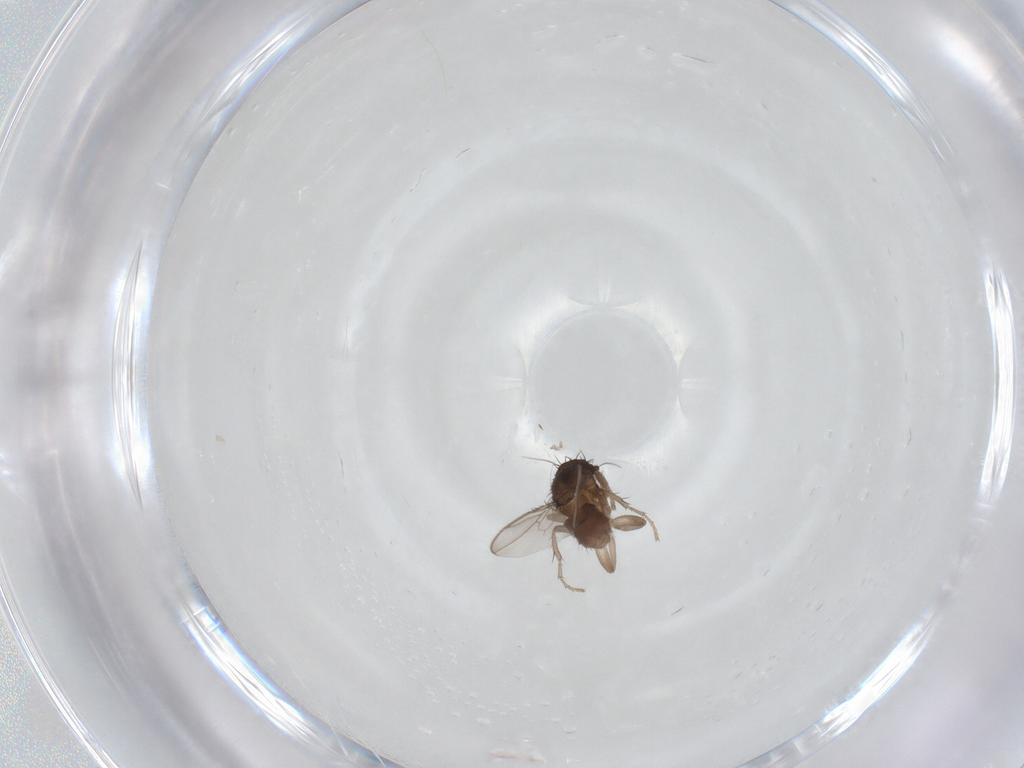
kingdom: Animalia
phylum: Arthropoda
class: Insecta
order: Diptera
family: Sphaeroceridae
